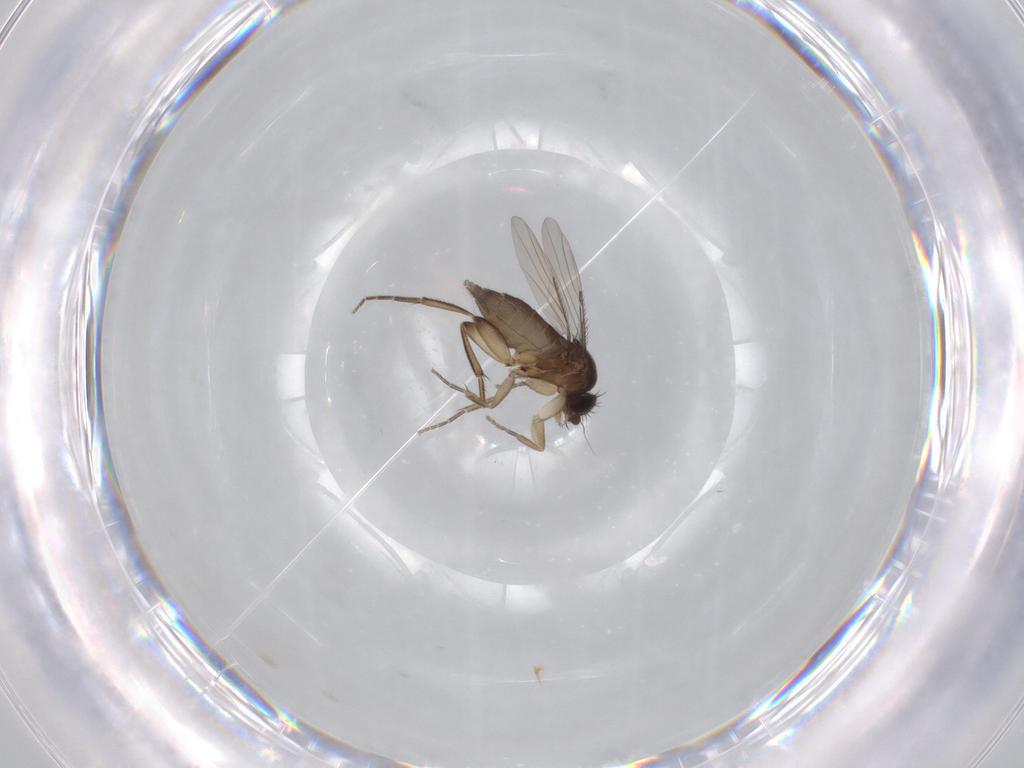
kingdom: Animalia
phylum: Arthropoda
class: Insecta
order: Diptera
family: Phoridae
